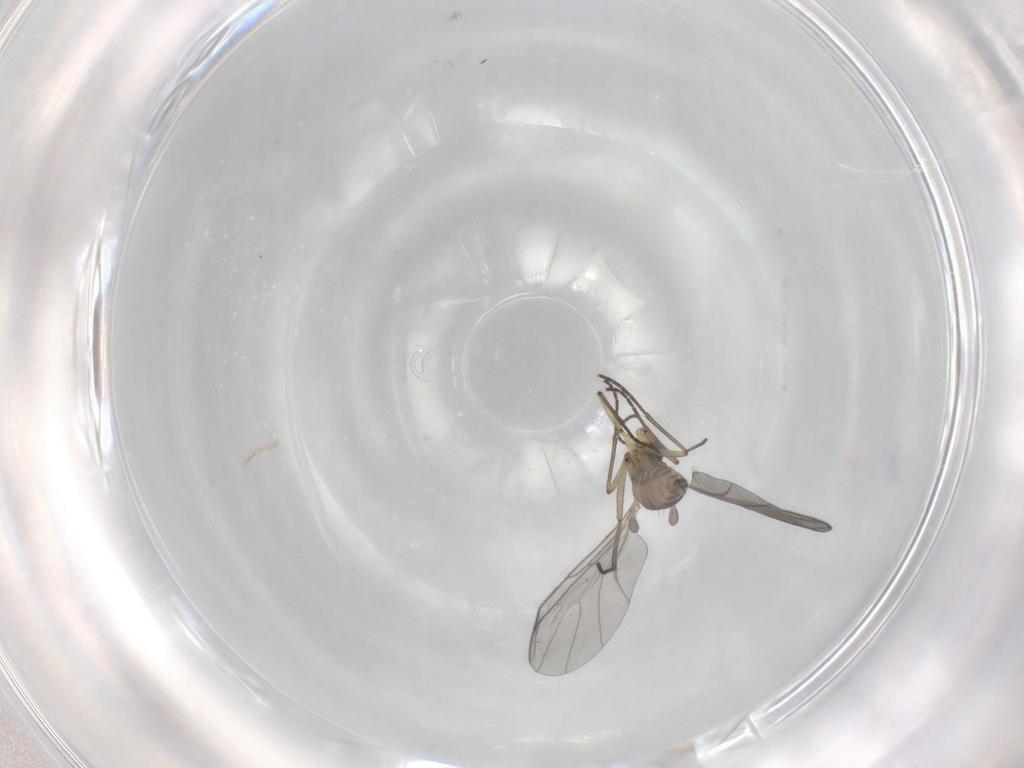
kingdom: Animalia
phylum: Arthropoda
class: Insecta
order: Diptera
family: Sciaridae
